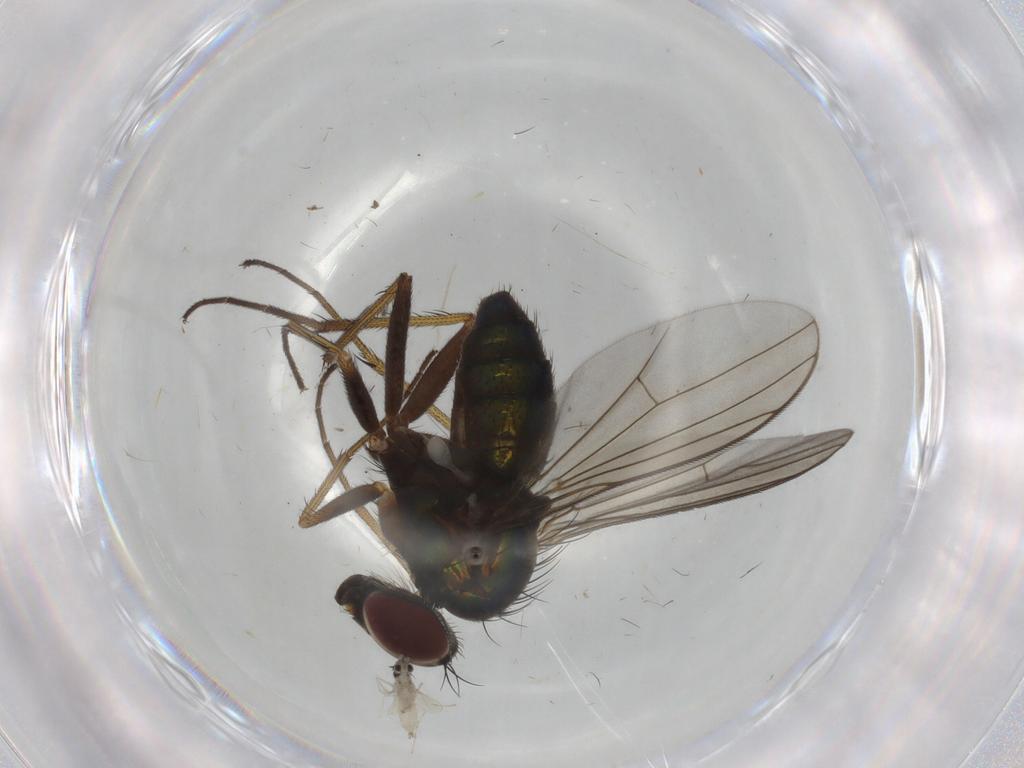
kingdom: Animalia
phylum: Arthropoda
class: Insecta
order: Diptera
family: Dolichopodidae
